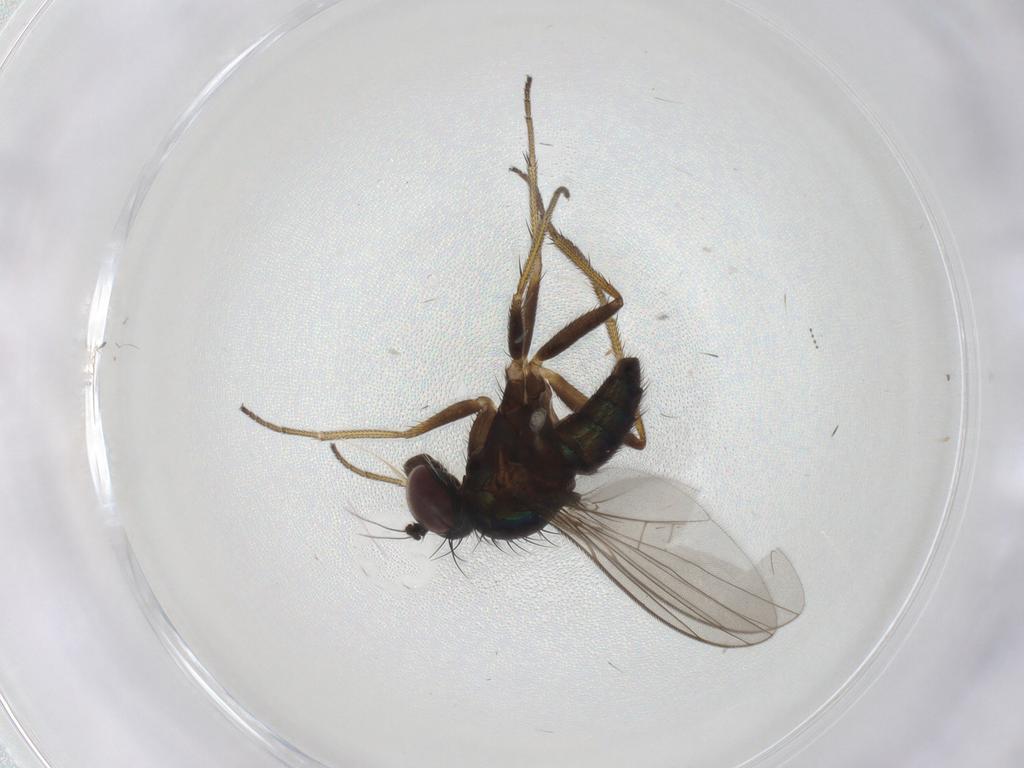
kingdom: Animalia
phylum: Arthropoda
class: Insecta
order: Diptera
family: Dolichopodidae
